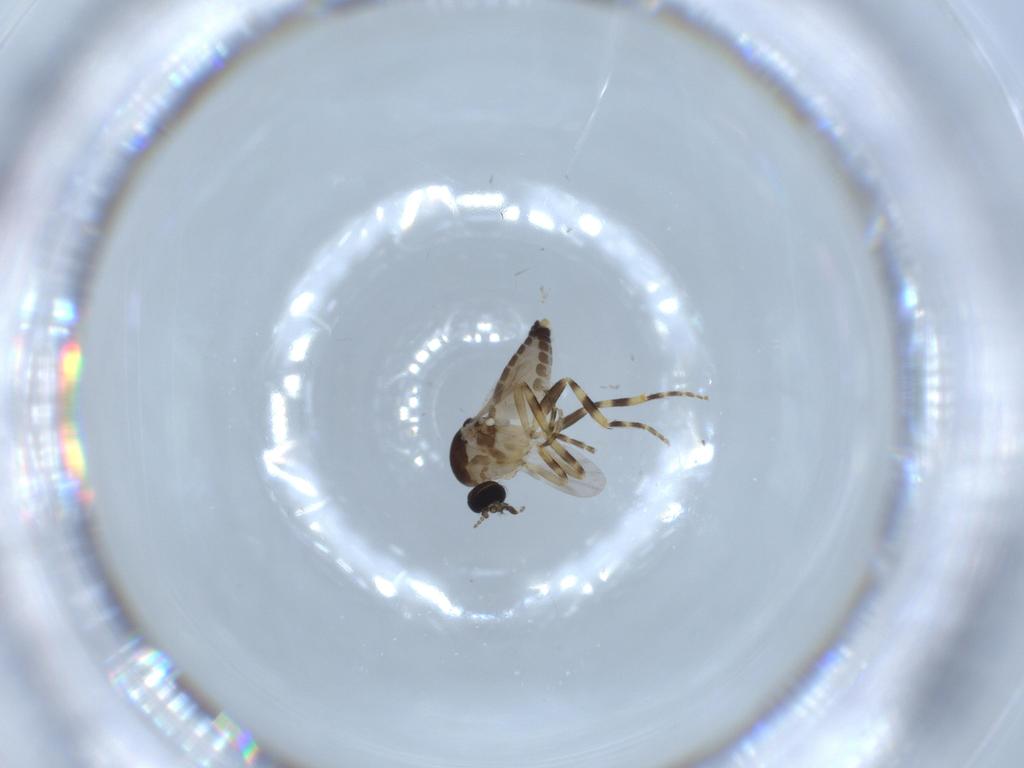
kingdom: Animalia
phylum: Arthropoda
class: Insecta
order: Diptera
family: Ceratopogonidae
